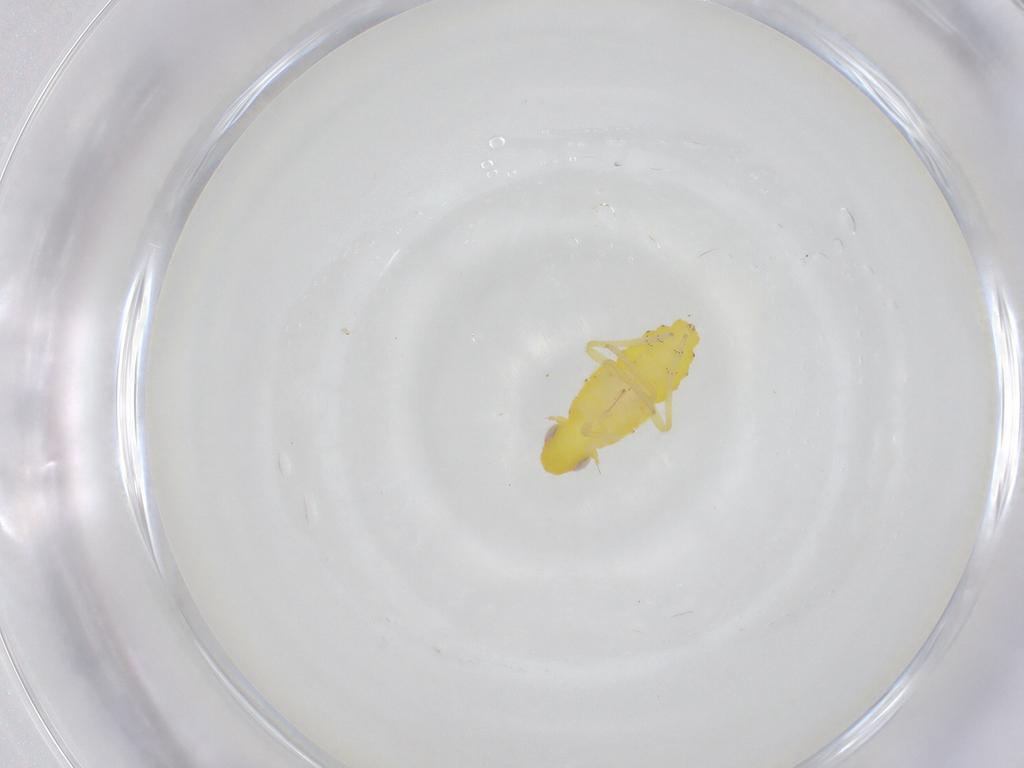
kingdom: Animalia
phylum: Arthropoda
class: Insecta
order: Hemiptera
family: Tropiduchidae
